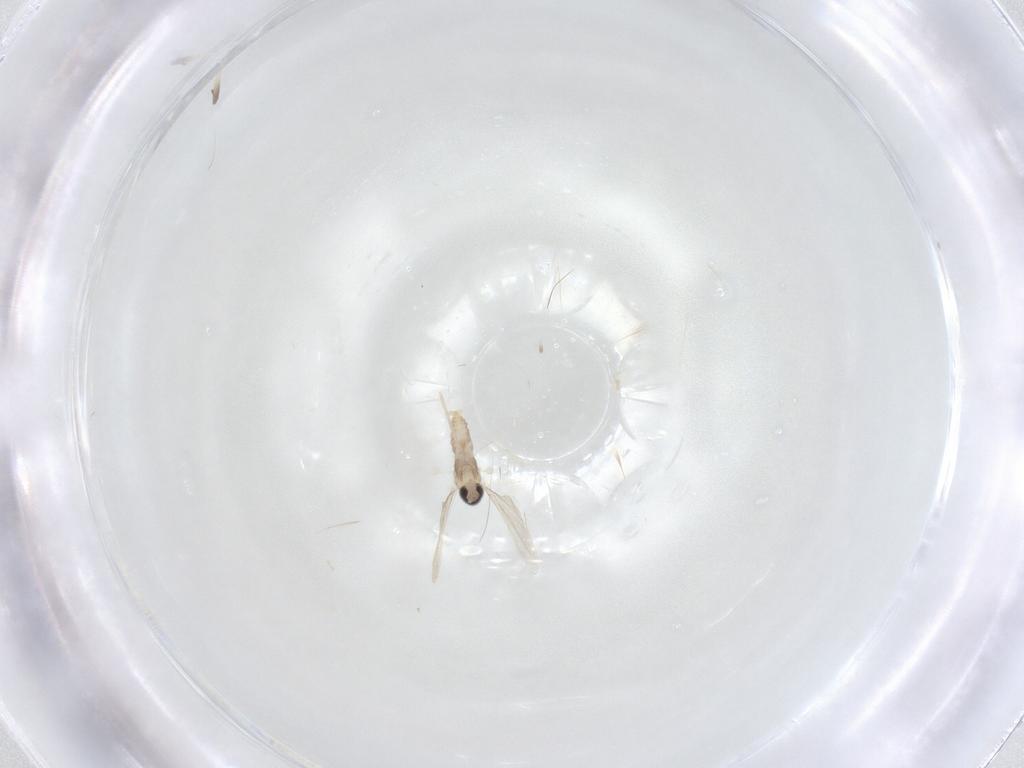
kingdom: Animalia
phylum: Arthropoda
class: Insecta
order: Diptera
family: Cecidomyiidae
